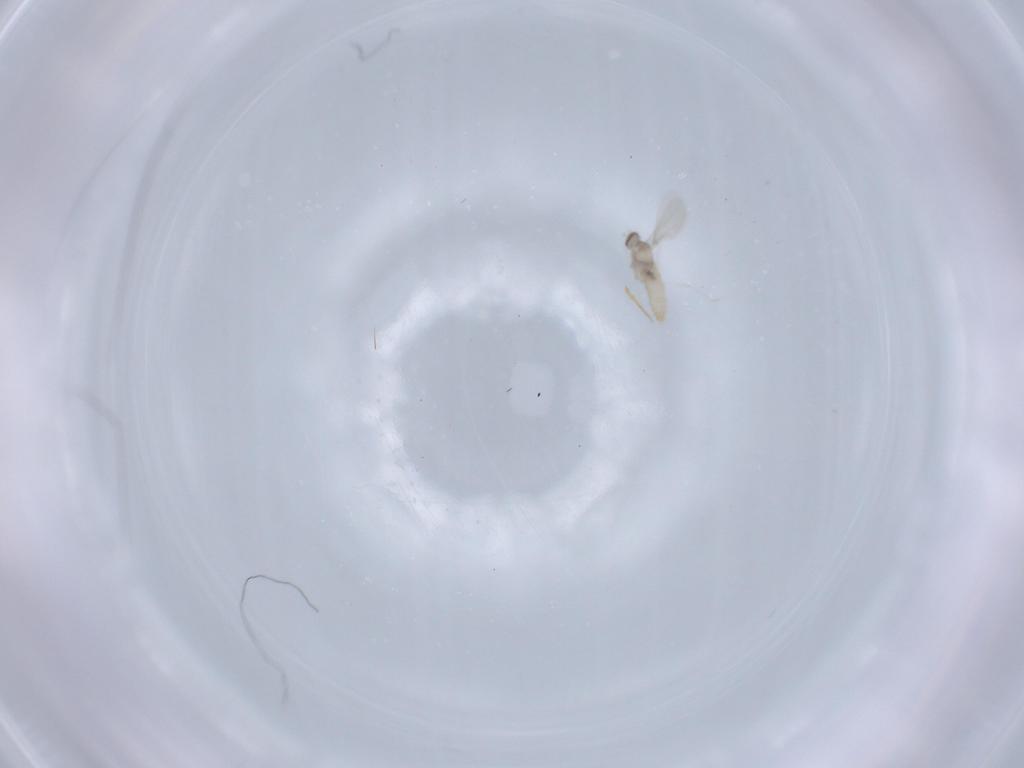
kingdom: Animalia
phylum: Arthropoda
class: Insecta
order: Diptera
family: Cecidomyiidae
